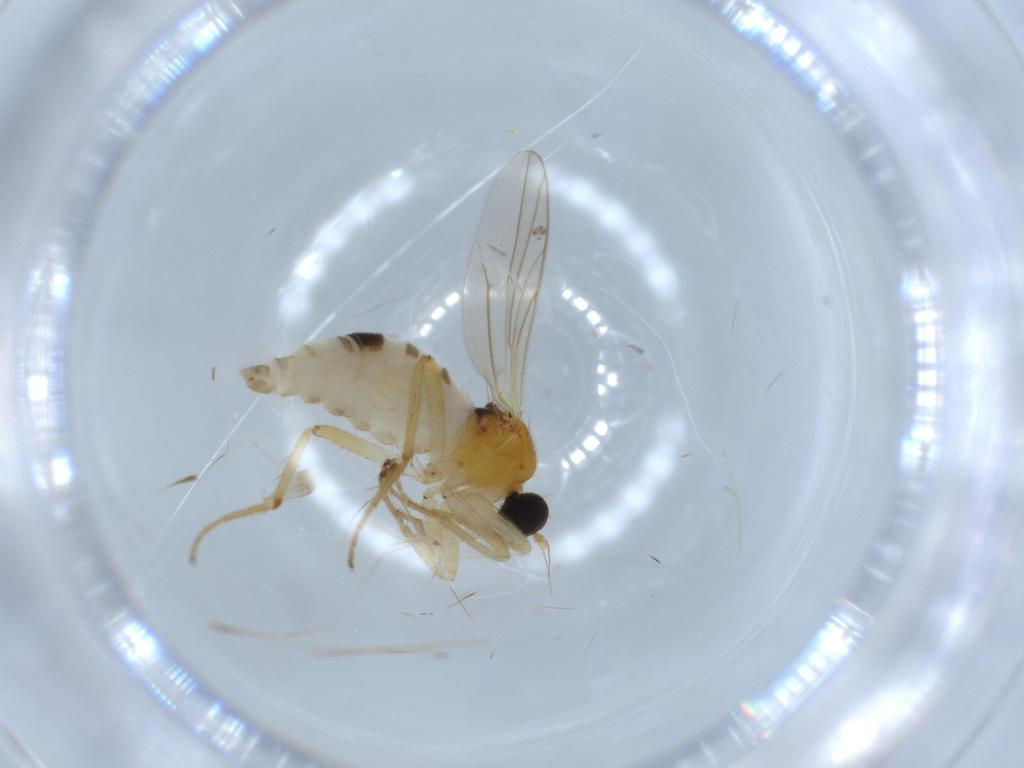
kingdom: Animalia
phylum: Arthropoda
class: Insecta
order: Diptera
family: Hybotidae
